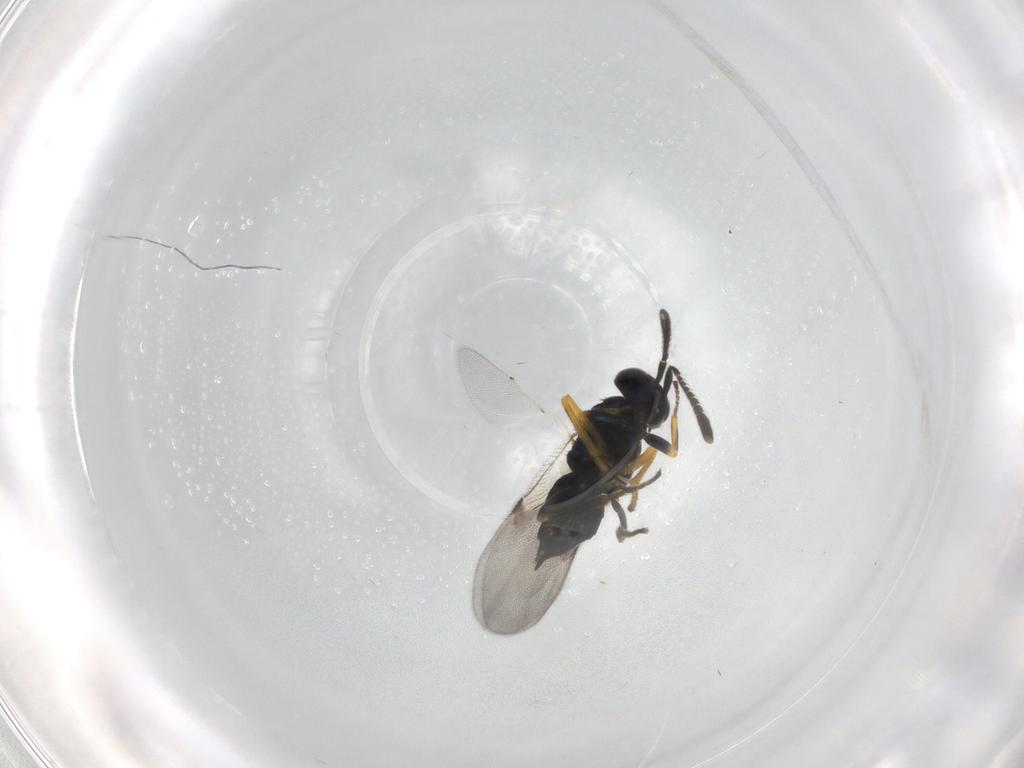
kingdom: Animalia
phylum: Arthropoda
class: Insecta
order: Hymenoptera
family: Encyrtidae
